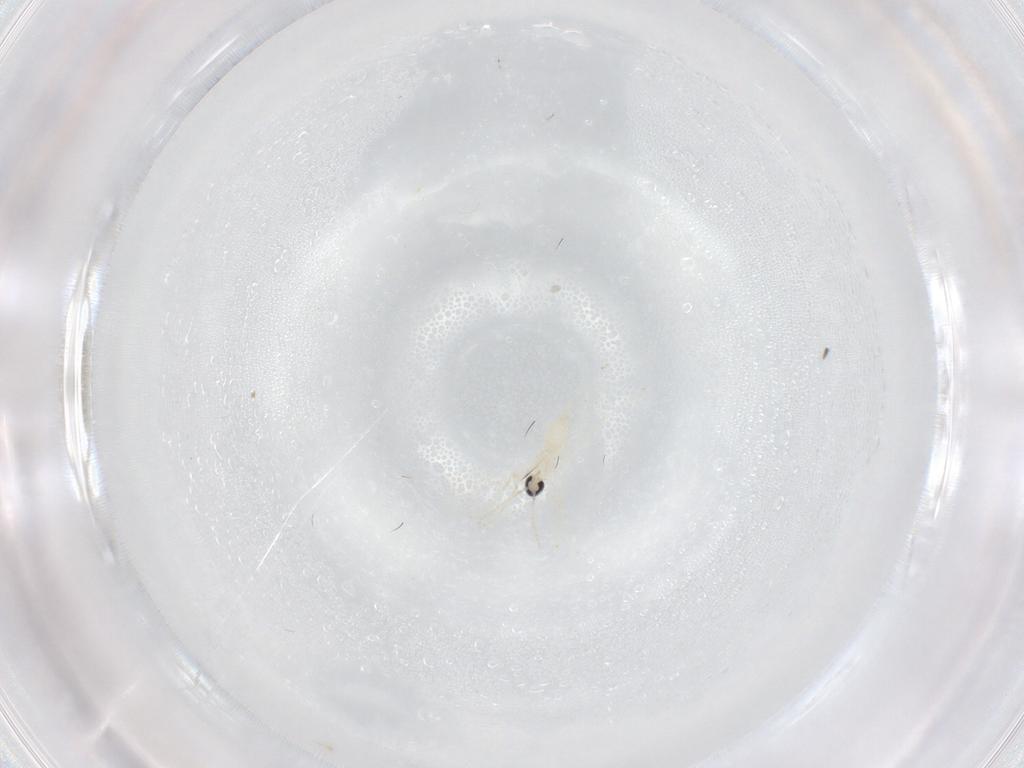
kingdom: Animalia
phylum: Arthropoda
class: Insecta
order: Diptera
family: Cecidomyiidae
